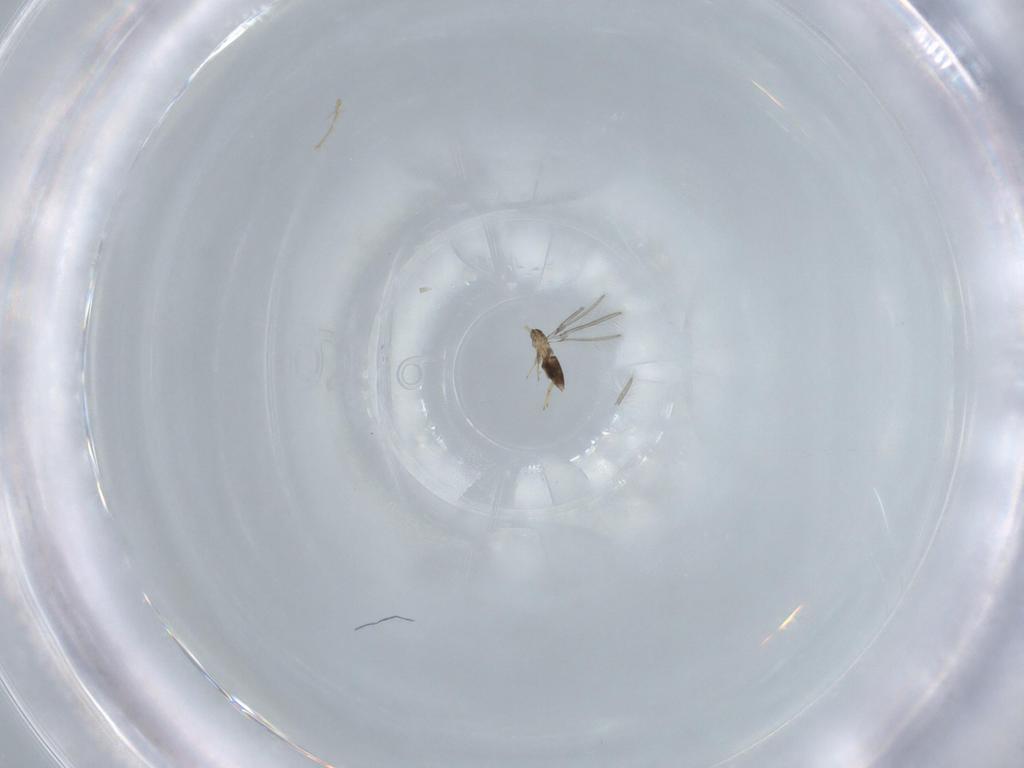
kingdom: Animalia
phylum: Arthropoda
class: Insecta
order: Hymenoptera
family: Mymaridae
